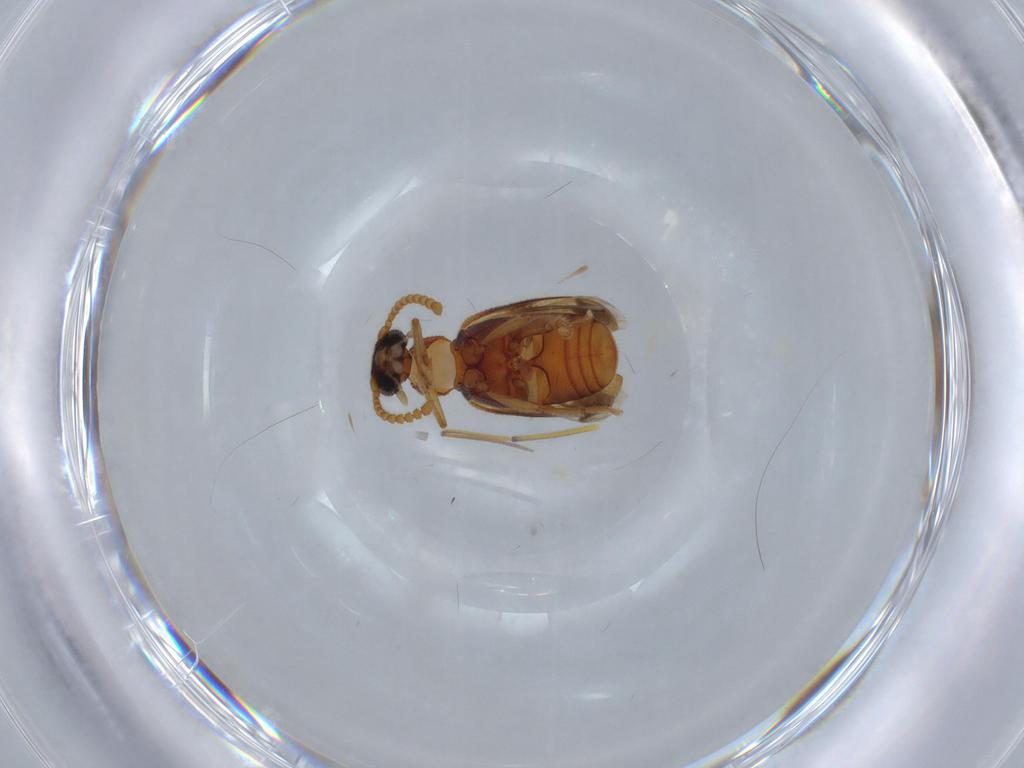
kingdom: Animalia
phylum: Arthropoda
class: Insecta
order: Coleoptera
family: Aderidae
